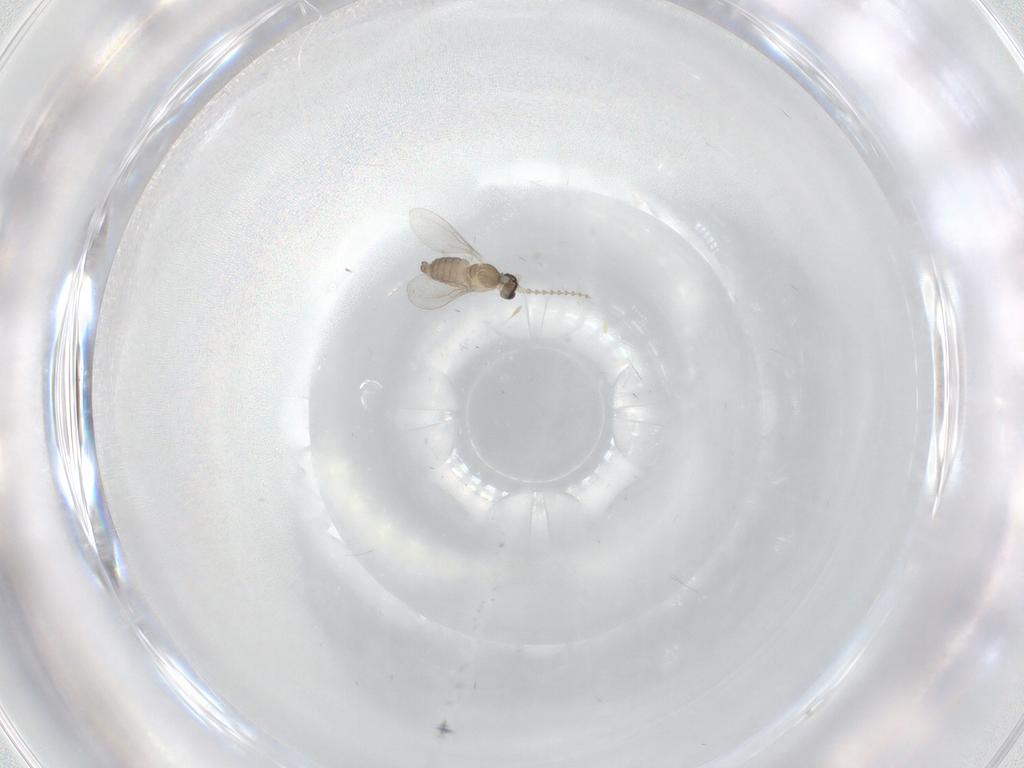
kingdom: Animalia
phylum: Arthropoda
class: Insecta
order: Diptera
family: Cecidomyiidae
